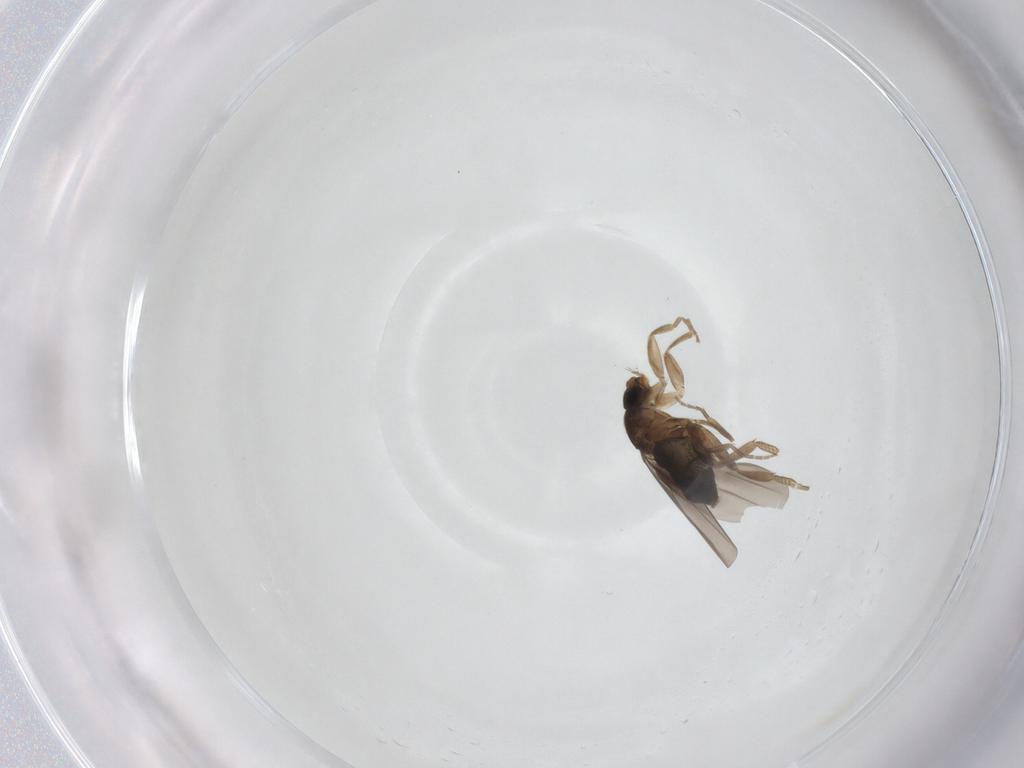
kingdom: Animalia
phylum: Arthropoda
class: Insecta
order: Diptera
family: Phoridae
